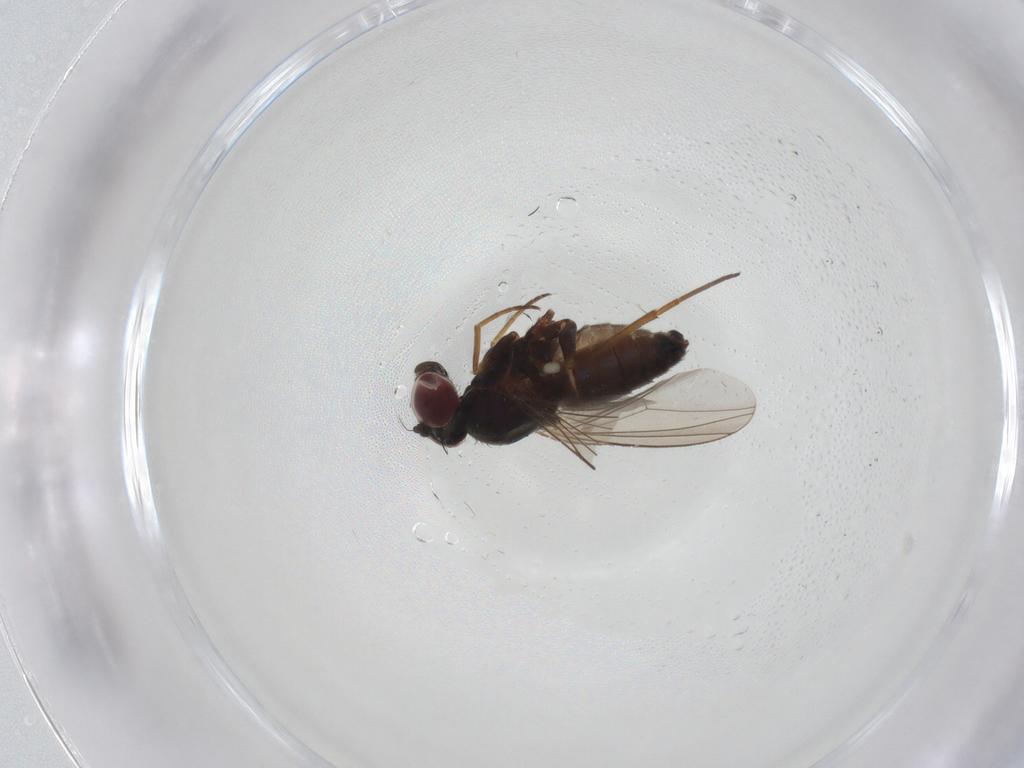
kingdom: Animalia
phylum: Arthropoda
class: Insecta
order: Diptera
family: Dolichopodidae
